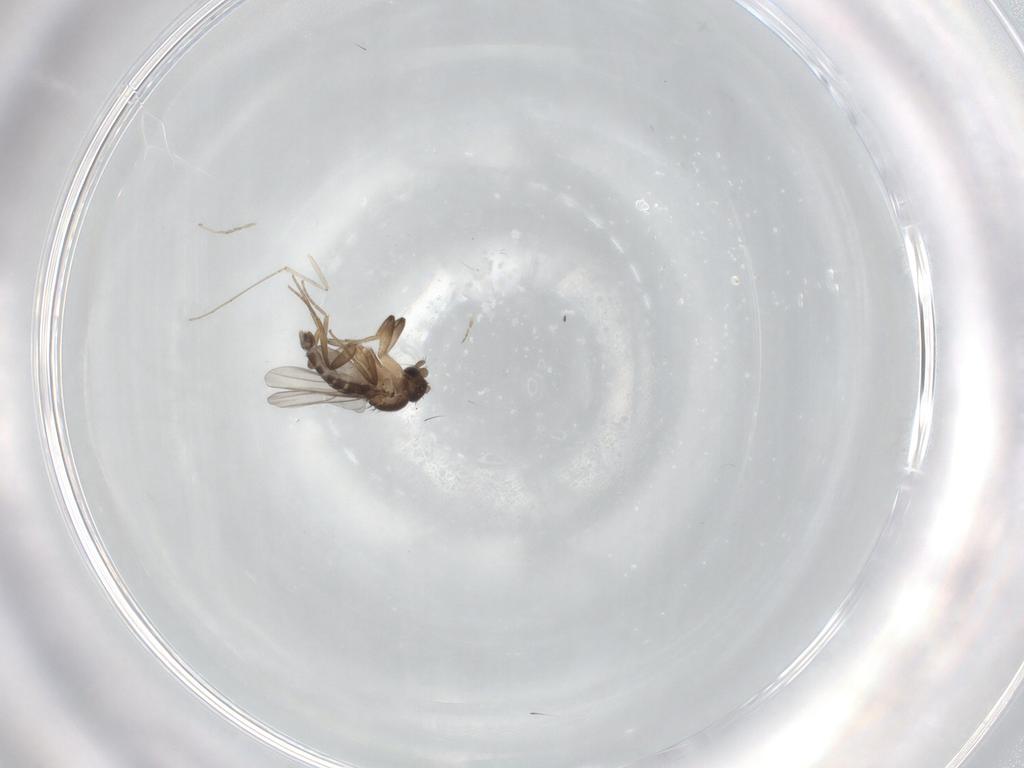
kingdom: Animalia
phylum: Arthropoda
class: Insecta
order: Diptera
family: Cecidomyiidae
